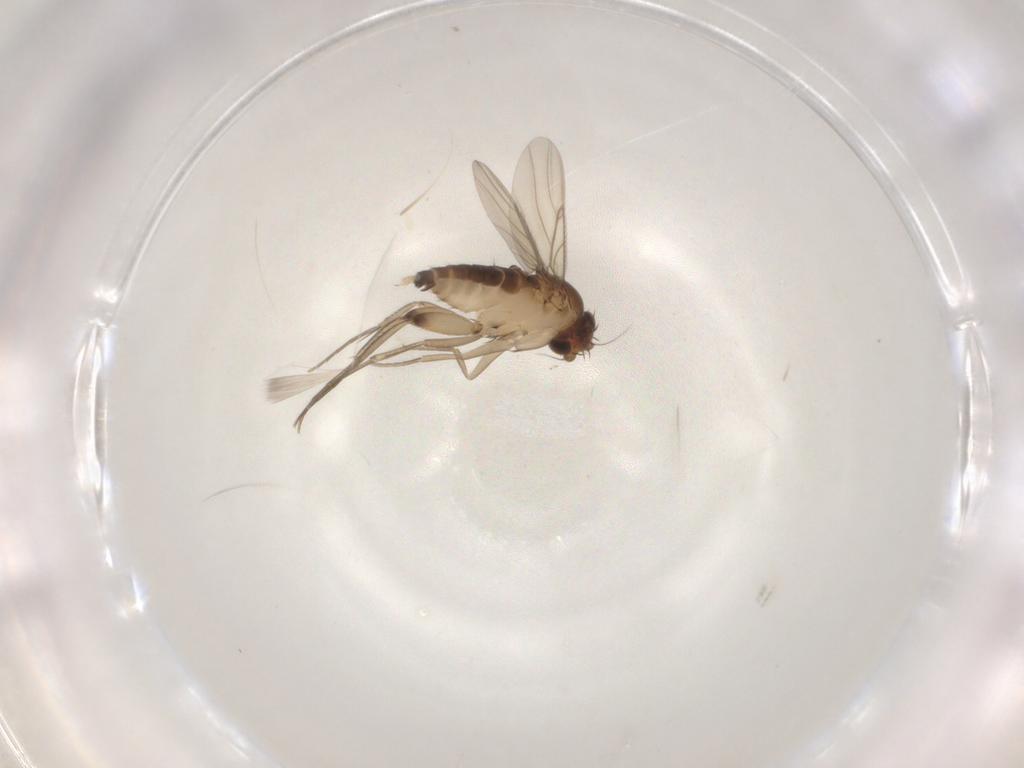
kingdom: Animalia
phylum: Arthropoda
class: Insecta
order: Diptera
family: Phoridae
